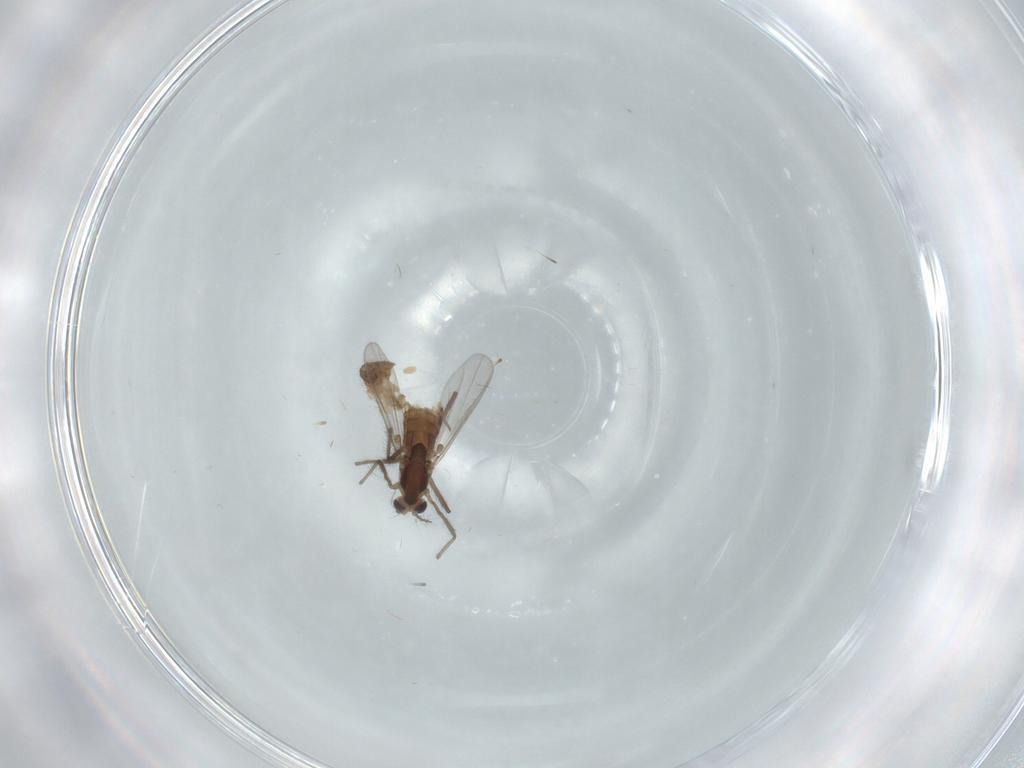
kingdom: Animalia
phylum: Arthropoda
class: Insecta
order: Diptera
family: Chironomidae
